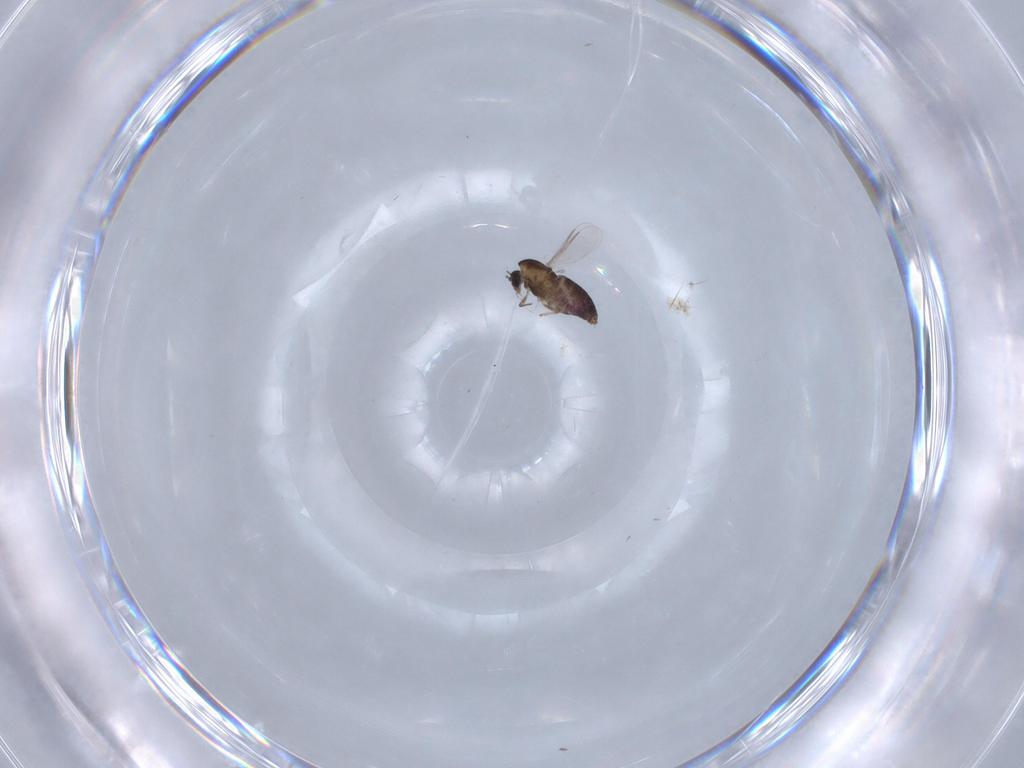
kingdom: Animalia
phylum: Arthropoda
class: Insecta
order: Diptera
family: Chironomidae
